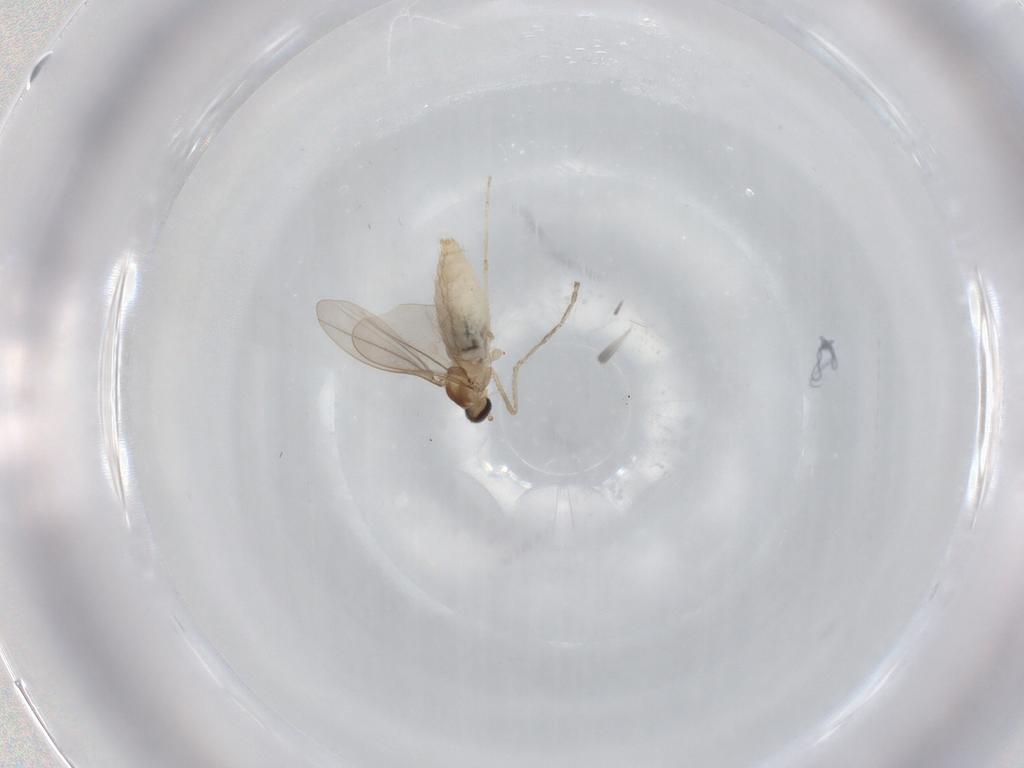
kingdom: Animalia
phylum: Arthropoda
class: Insecta
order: Diptera
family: Cecidomyiidae
